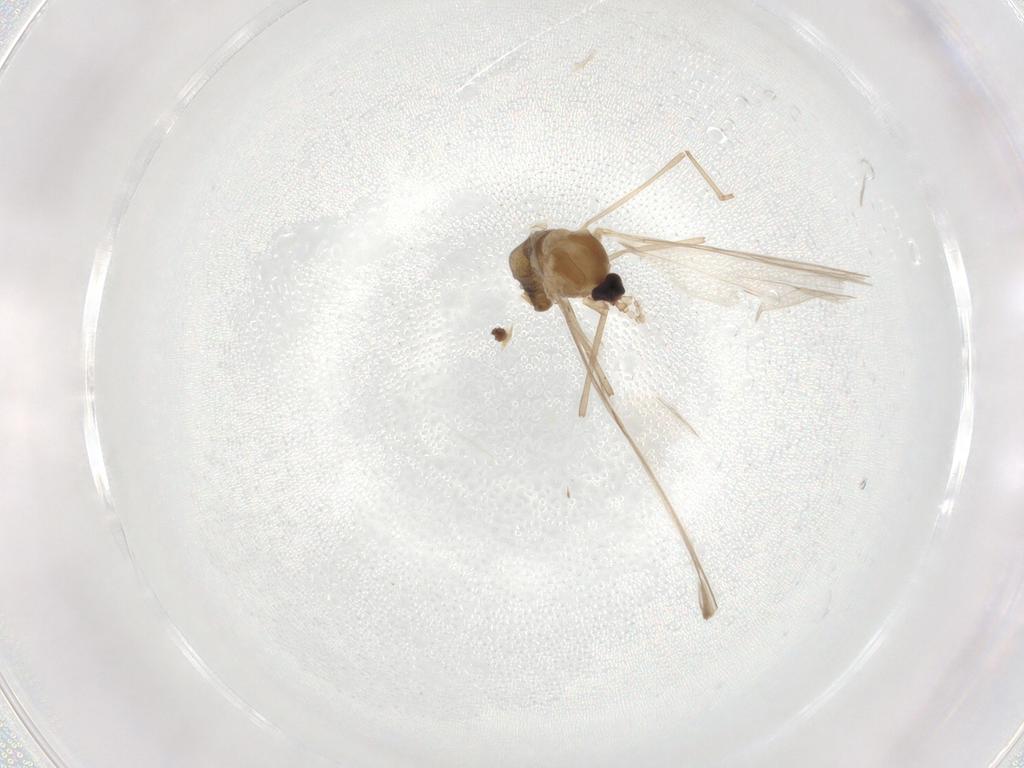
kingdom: Animalia
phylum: Arthropoda
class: Insecta
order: Diptera
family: Cecidomyiidae
